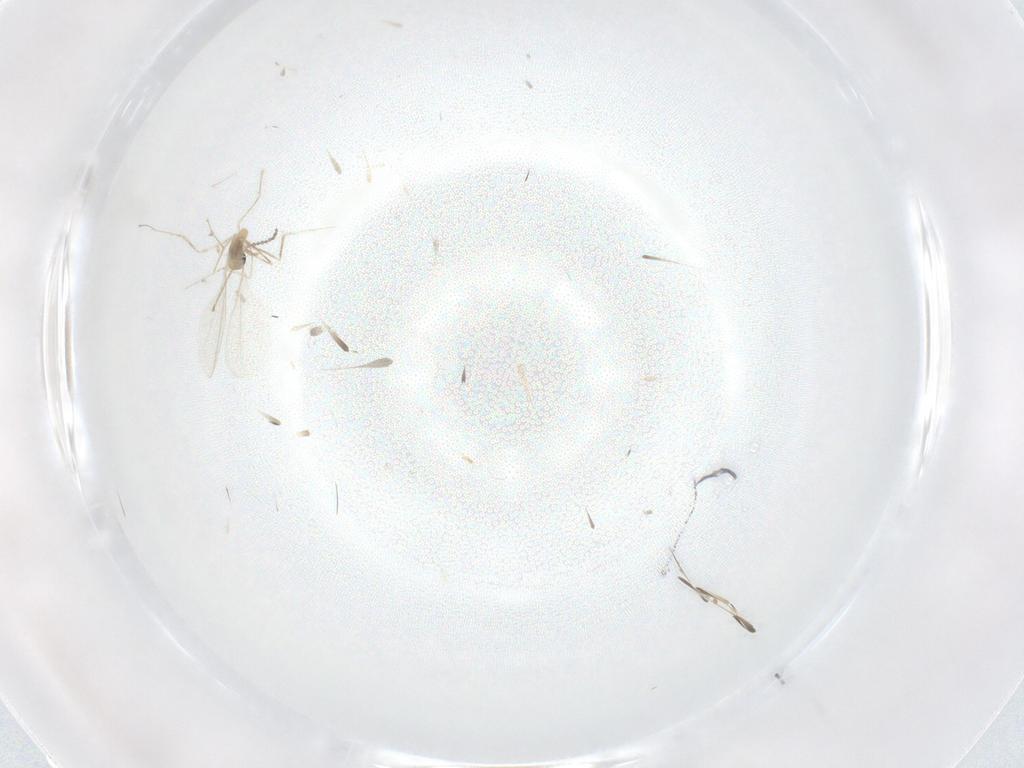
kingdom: Animalia
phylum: Arthropoda
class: Insecta
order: Diptera
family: Cecidomyiidae
